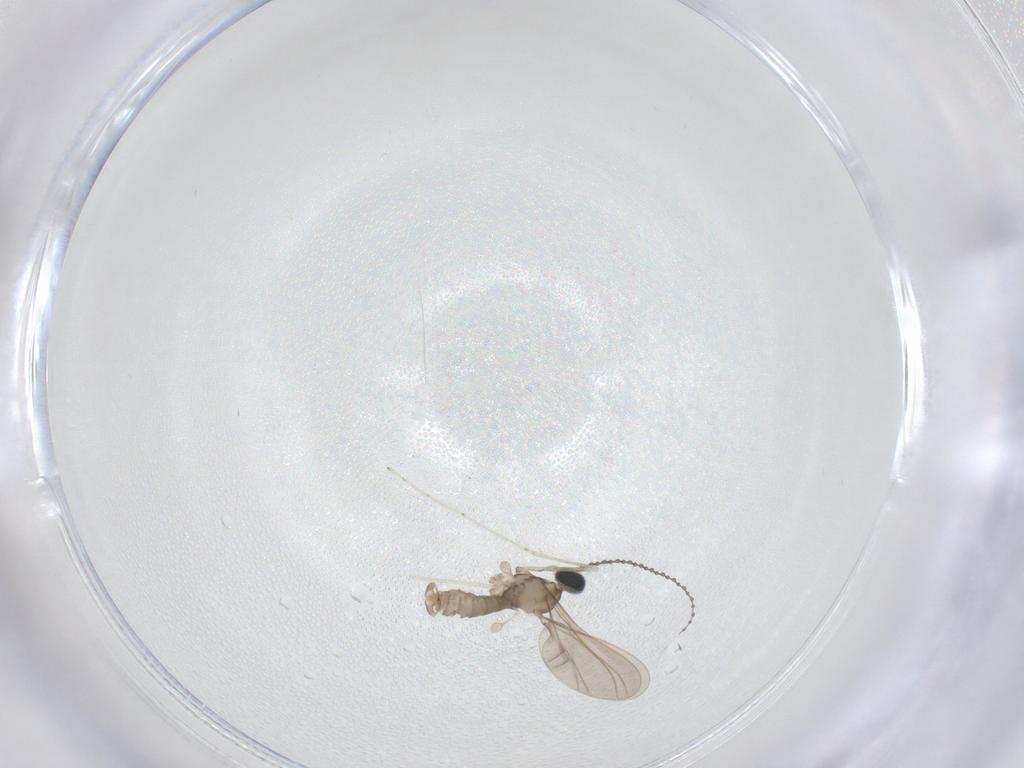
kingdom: Animalia
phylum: Arthropoda
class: Insecta
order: Diptera
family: Cecidomyiidae
